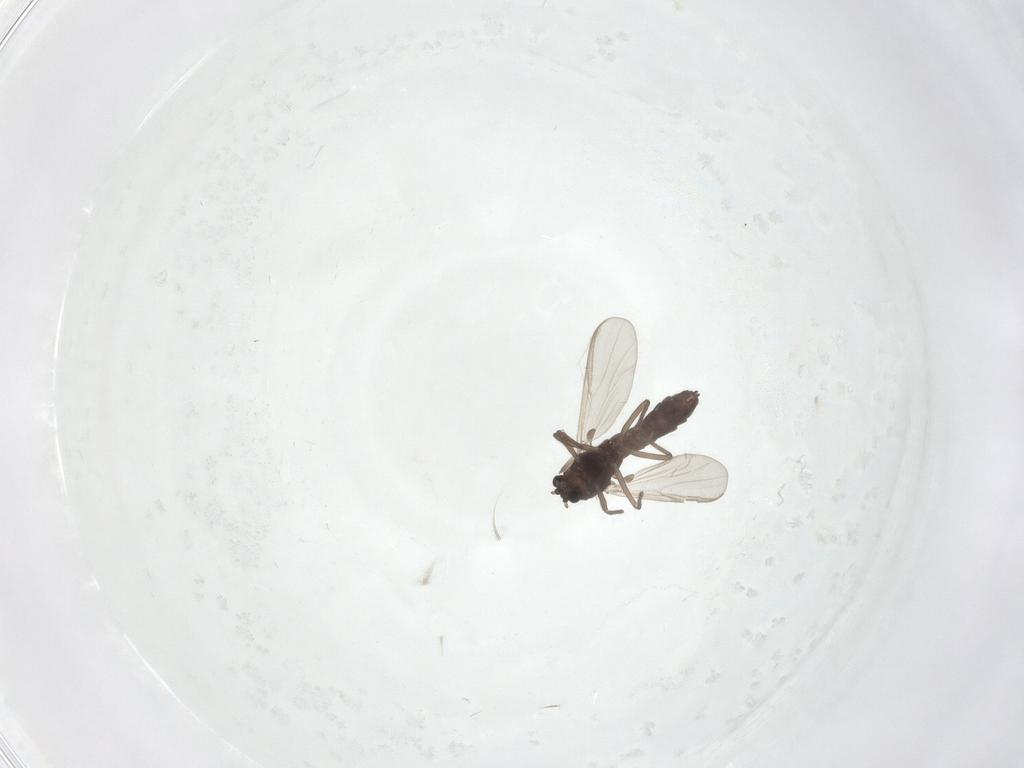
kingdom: Animalia
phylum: Arthropoda
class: Insecta
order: Diptera
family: Chironomidae
